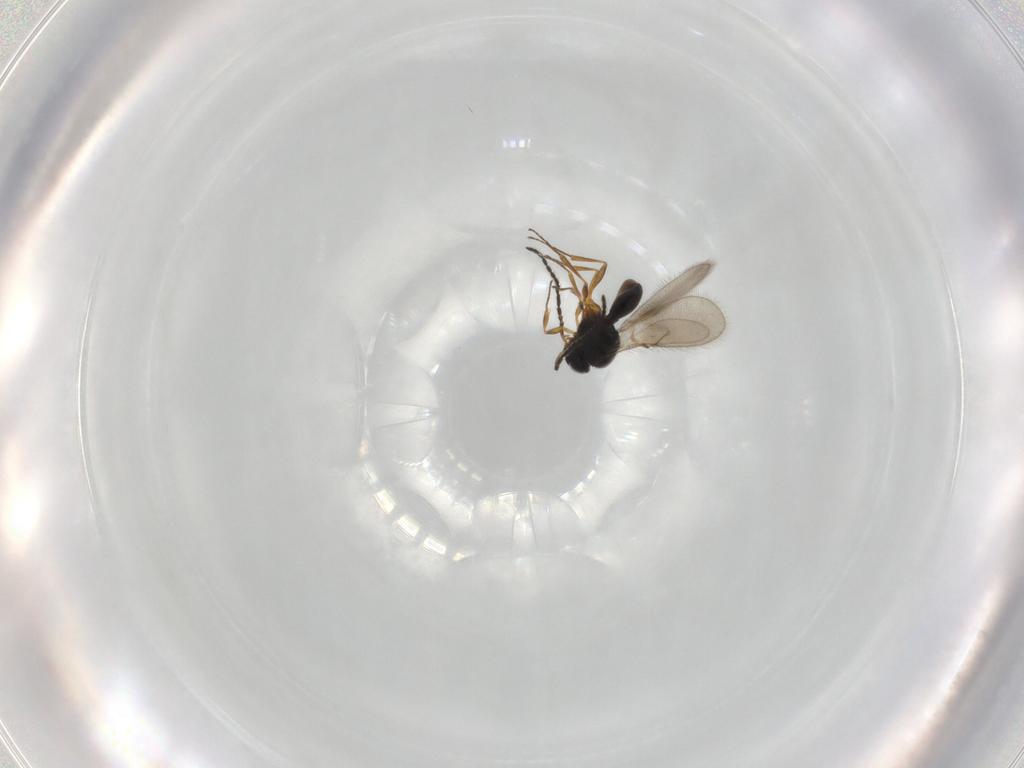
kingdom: Animalia
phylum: Arthropoda
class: Insecta
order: Hymenoptera
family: Scelionidae
